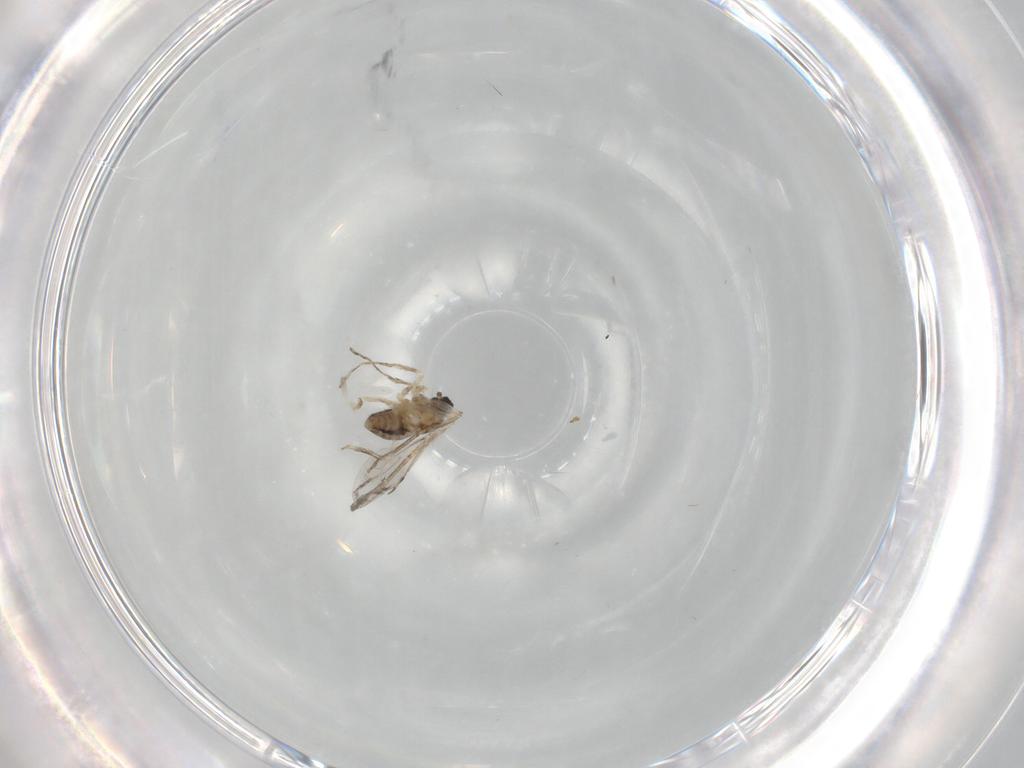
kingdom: Animalia
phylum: Arthropoda
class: Insecta
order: Diptera
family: Cecidomyiidae
